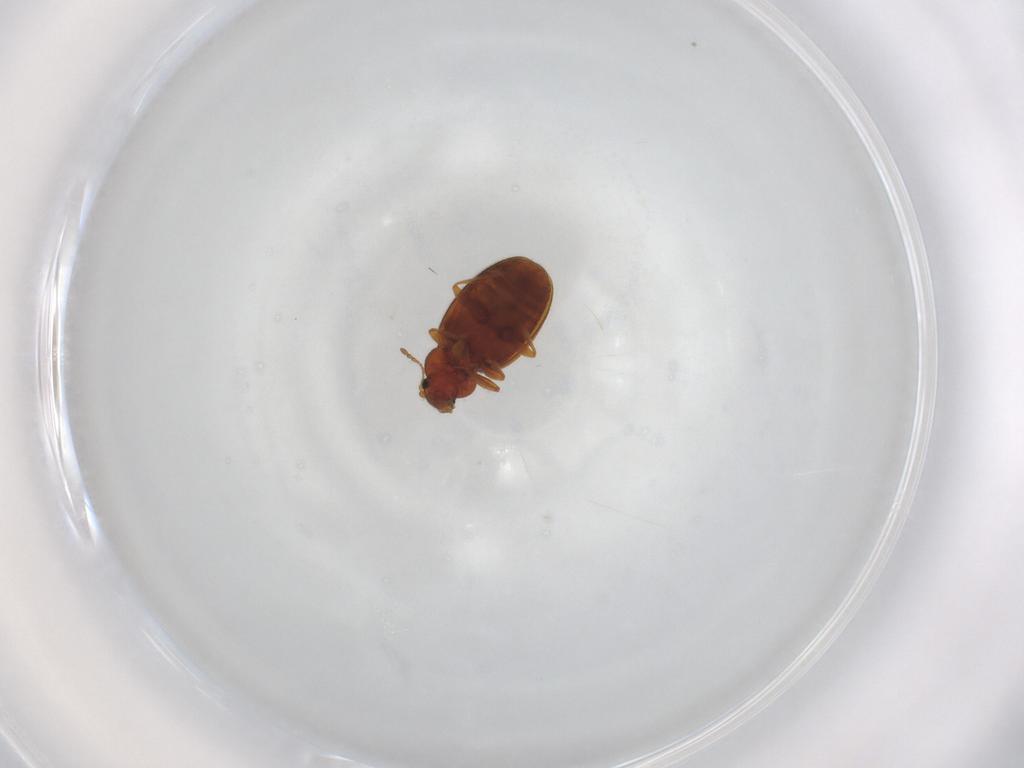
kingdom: Animalia
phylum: Arthropoda
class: Insecta
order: Coleoptera
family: Latridiidae
